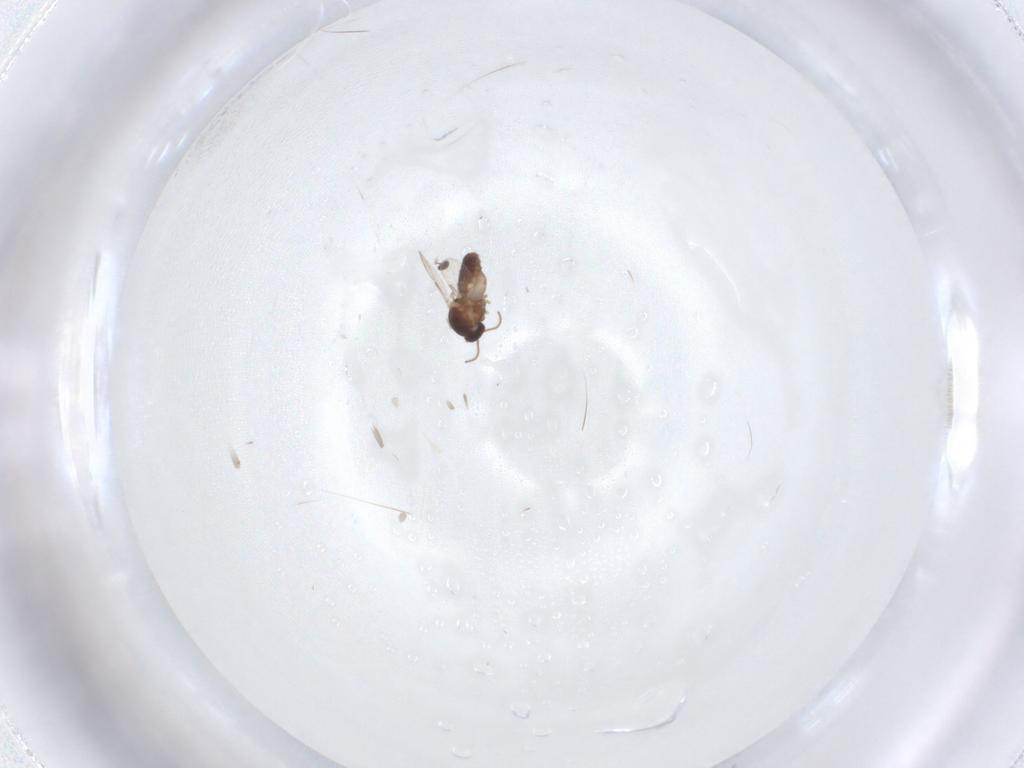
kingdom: Animalia
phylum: Arthropoda
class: Insecta
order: Diptera
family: Ceratopogonidae
